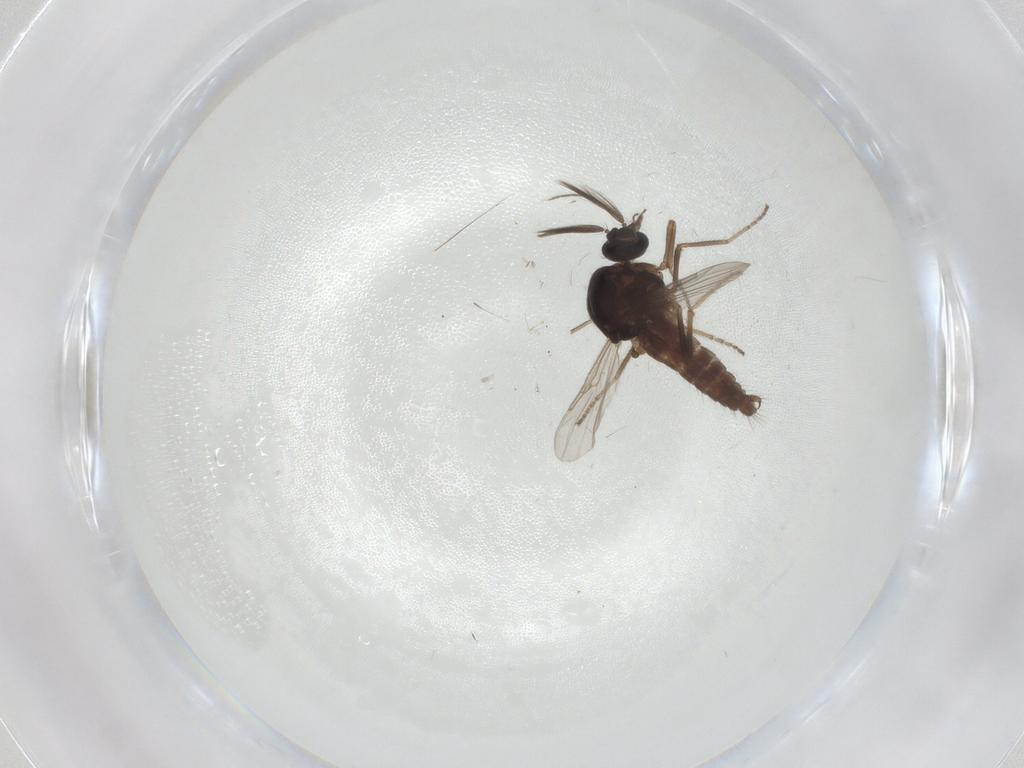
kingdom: Animalia
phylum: Arthropoda
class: Insecta
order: Diptera
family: Ceratopogonidae
